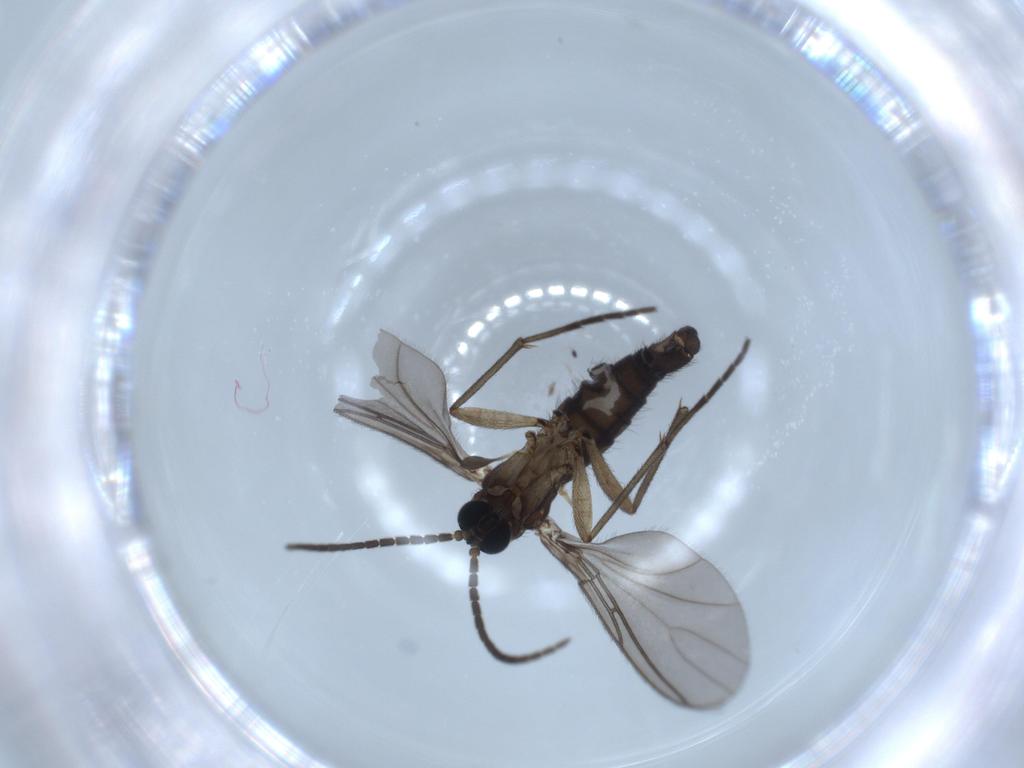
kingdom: Animalia
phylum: Arthropoda
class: Insecta
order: Diptera
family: Sciaridae
